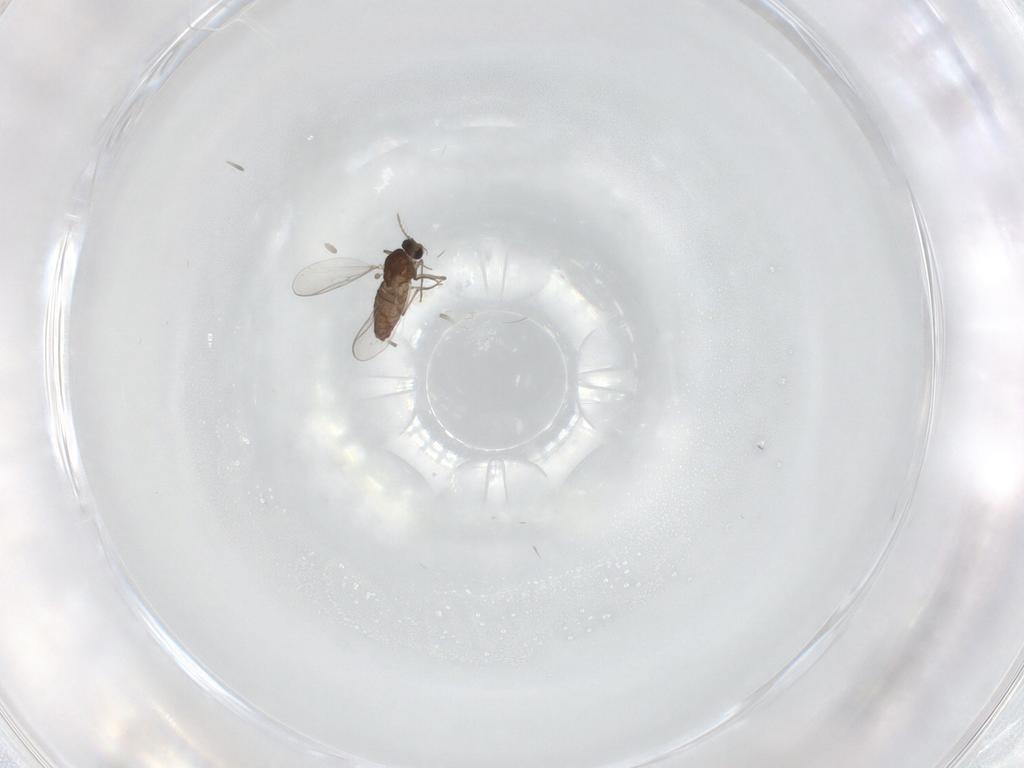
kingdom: Animalia
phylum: Arthropoda
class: Insecta
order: Diptera
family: Chironomidae
